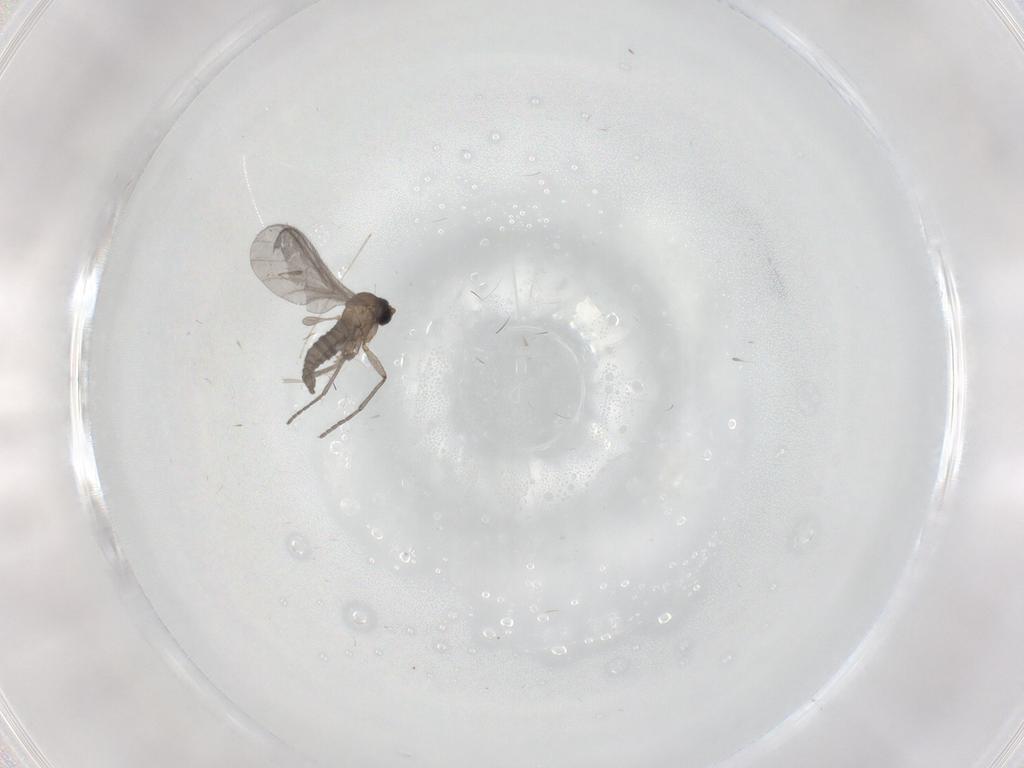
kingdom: Animalia
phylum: Arthropoda
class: Insecta
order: Diptera
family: Sciaridae
